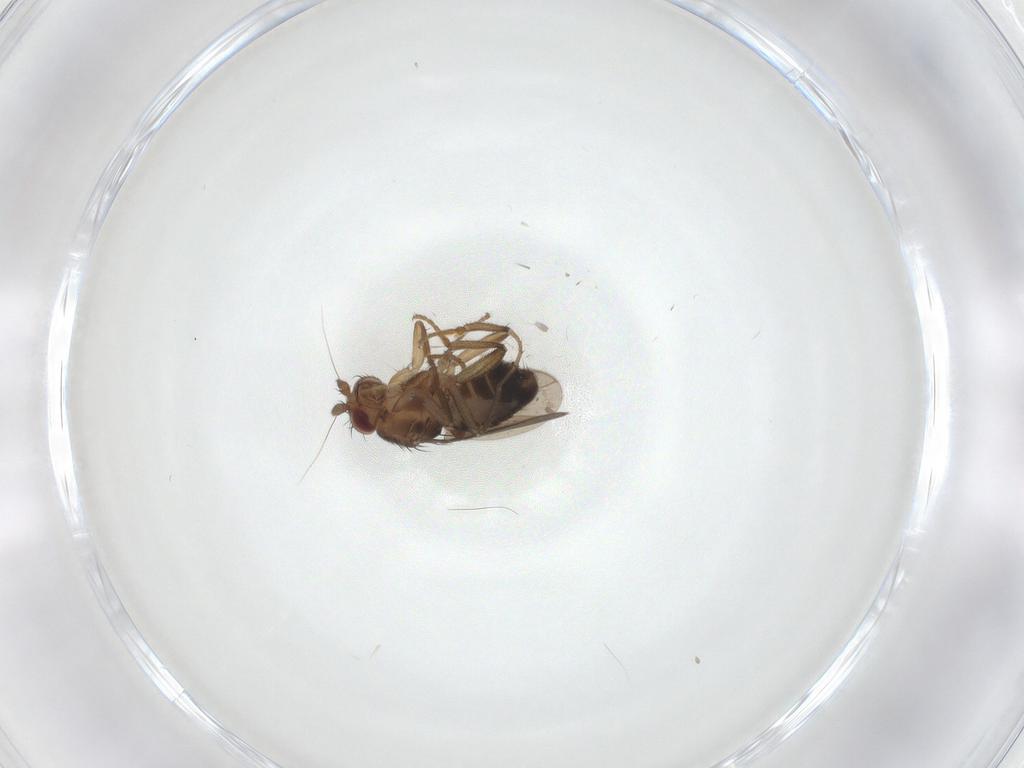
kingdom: Animalia
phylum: Arthropoda
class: Insecta
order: Diptera
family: Sphaeroceridae
